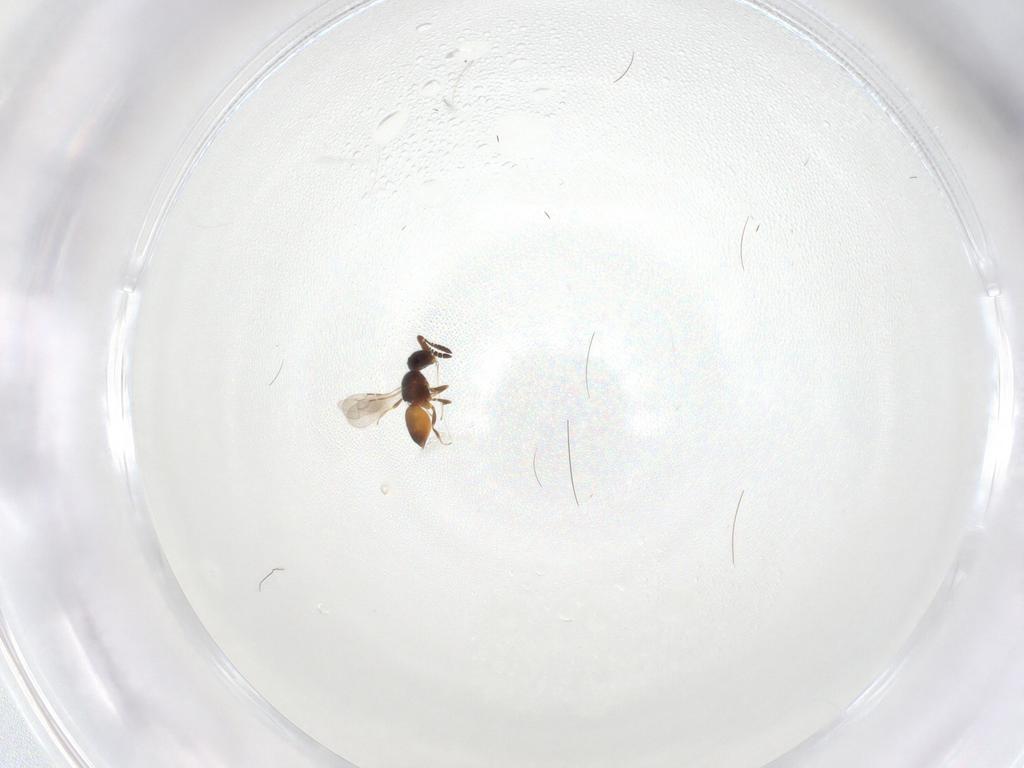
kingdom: Animalia
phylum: Arthropoda
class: Insecta
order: Hymenoptera
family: Ceraphronidae
